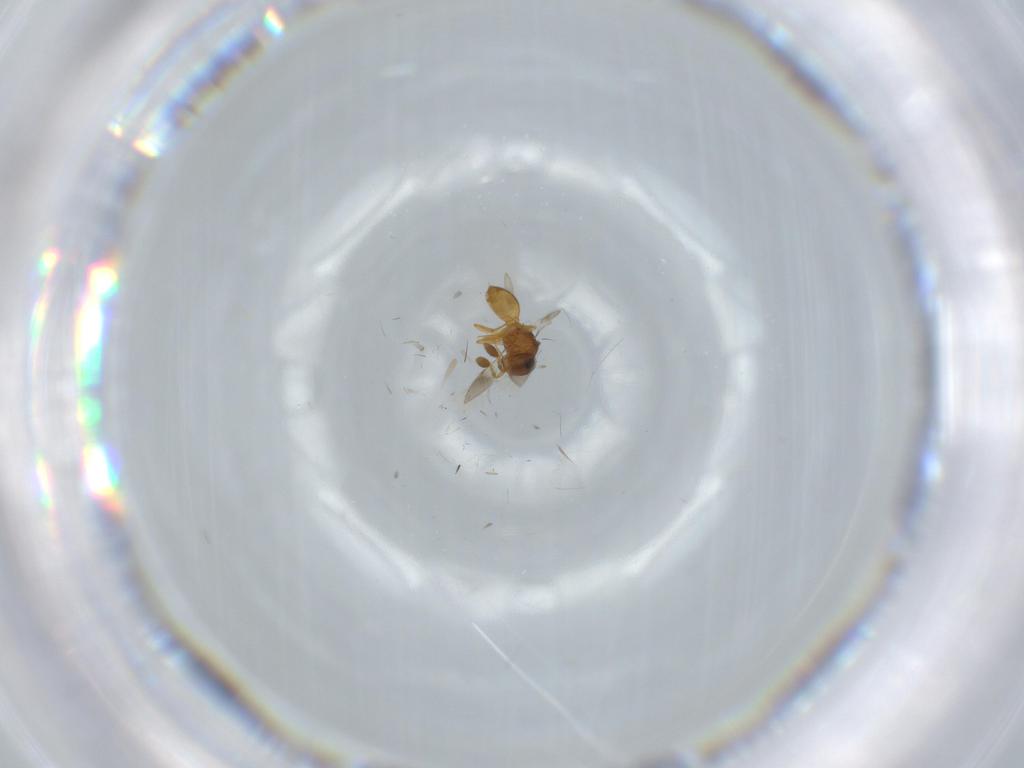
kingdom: Animalia
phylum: Arthropoda
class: Insecta
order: Hymenoptera
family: Scelionidae
